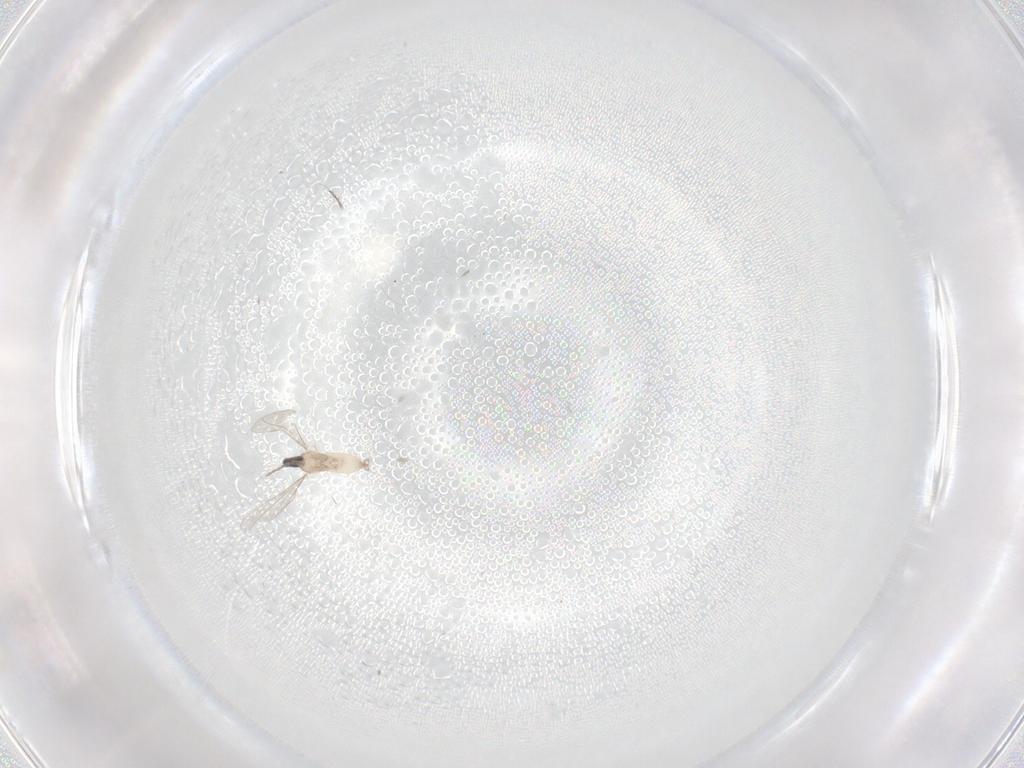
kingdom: Animalia
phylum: Arthropoda
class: Insecta
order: Diptera
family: Cecidomyiidae
